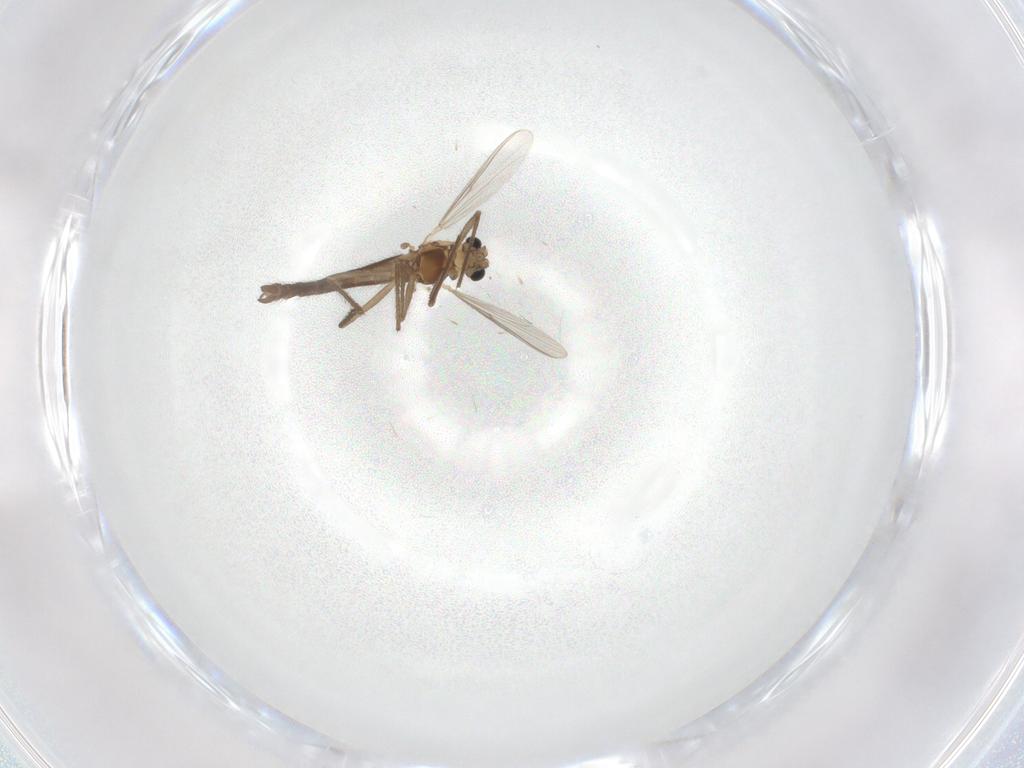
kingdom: Animalia
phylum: Arthropoda
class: Insecta
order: Diptera
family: Chironomidae
